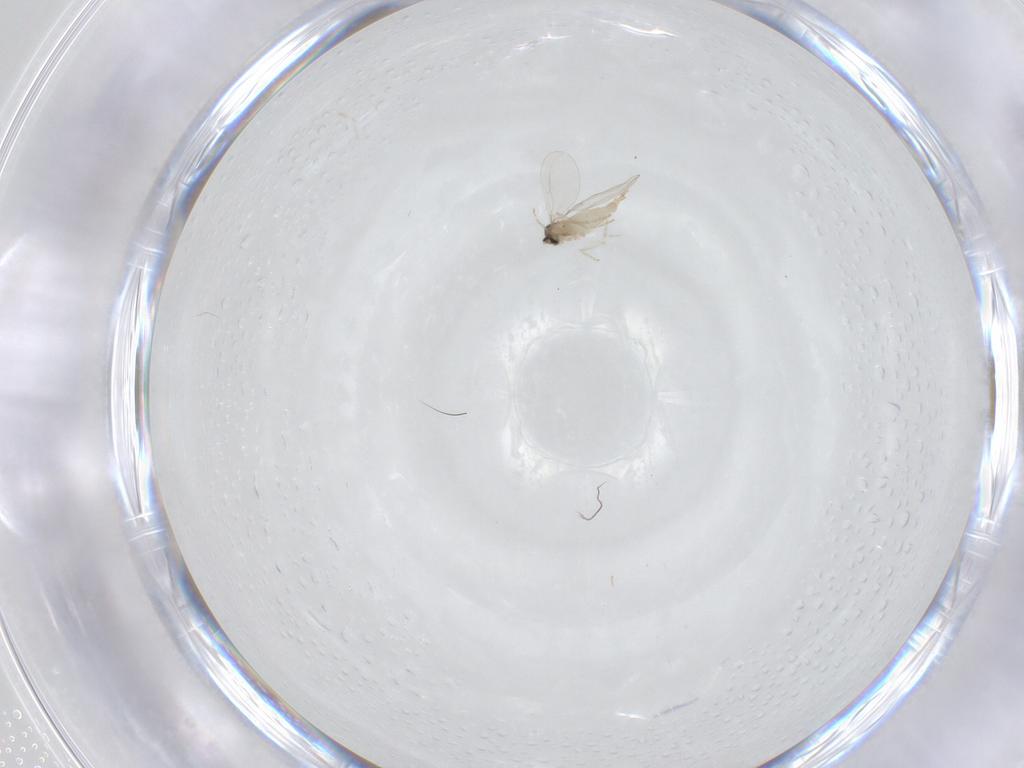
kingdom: Animalia
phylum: Arthropoda
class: Insecta
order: Diptera
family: Cecidomyiidae
